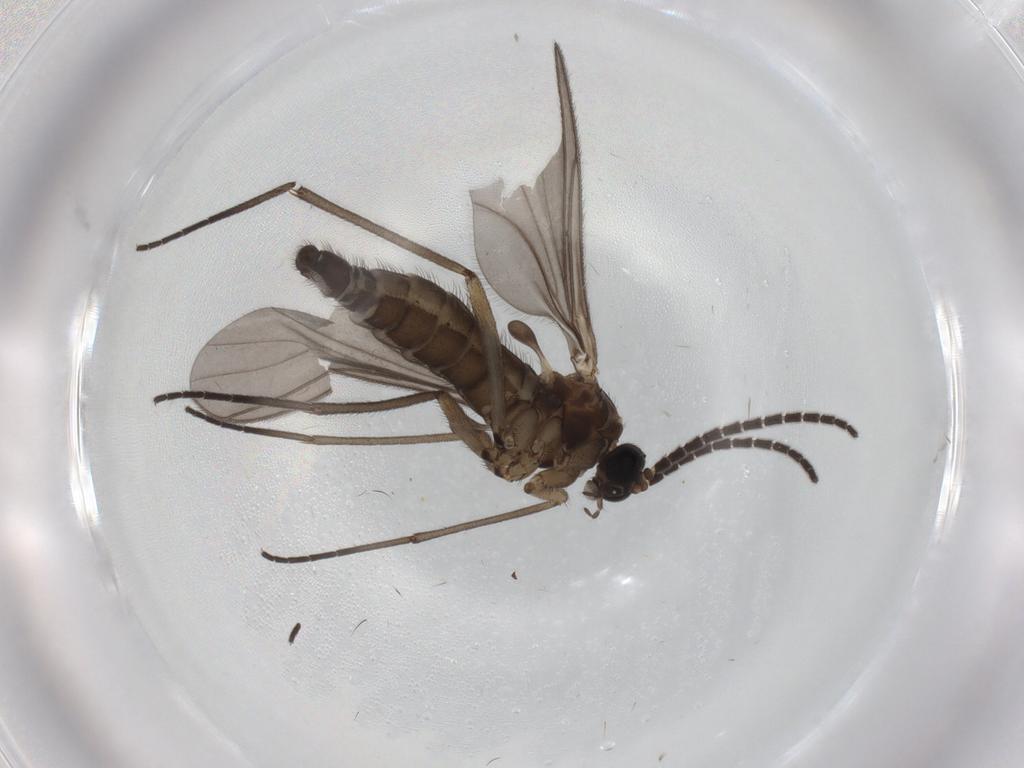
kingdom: Animalia
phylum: Arthropoda
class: Insecta
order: Diptera
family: Sciaridae
